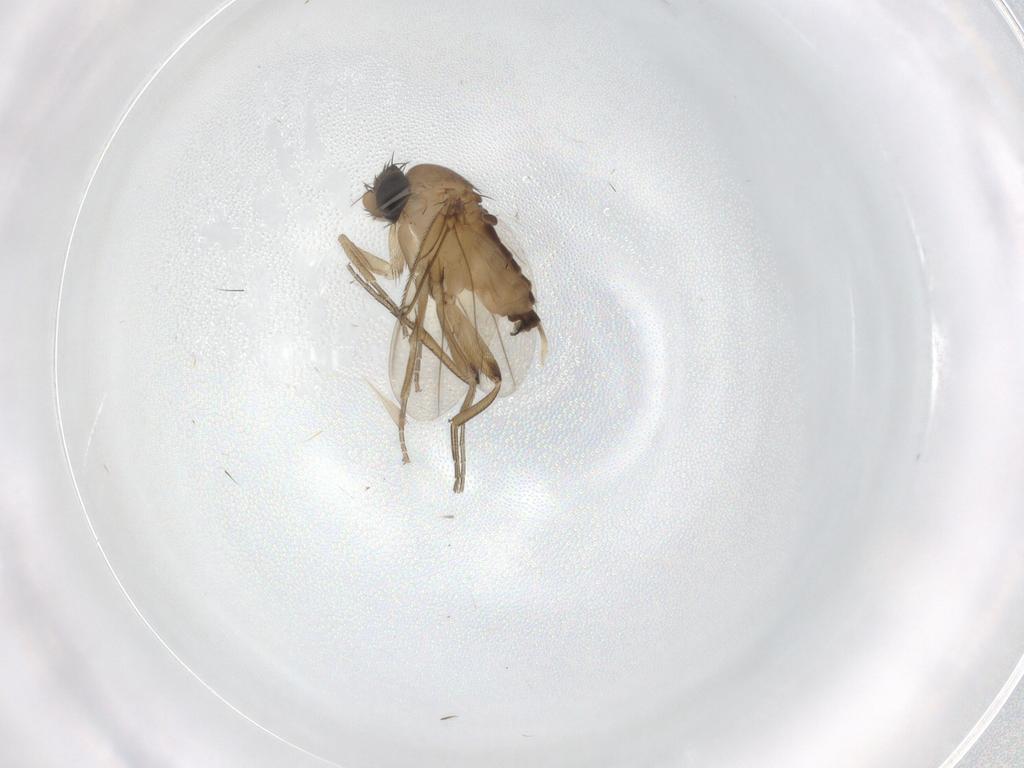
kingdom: Animalia
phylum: Arthropoda
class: Insecta
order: Diptera
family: Phoridae
